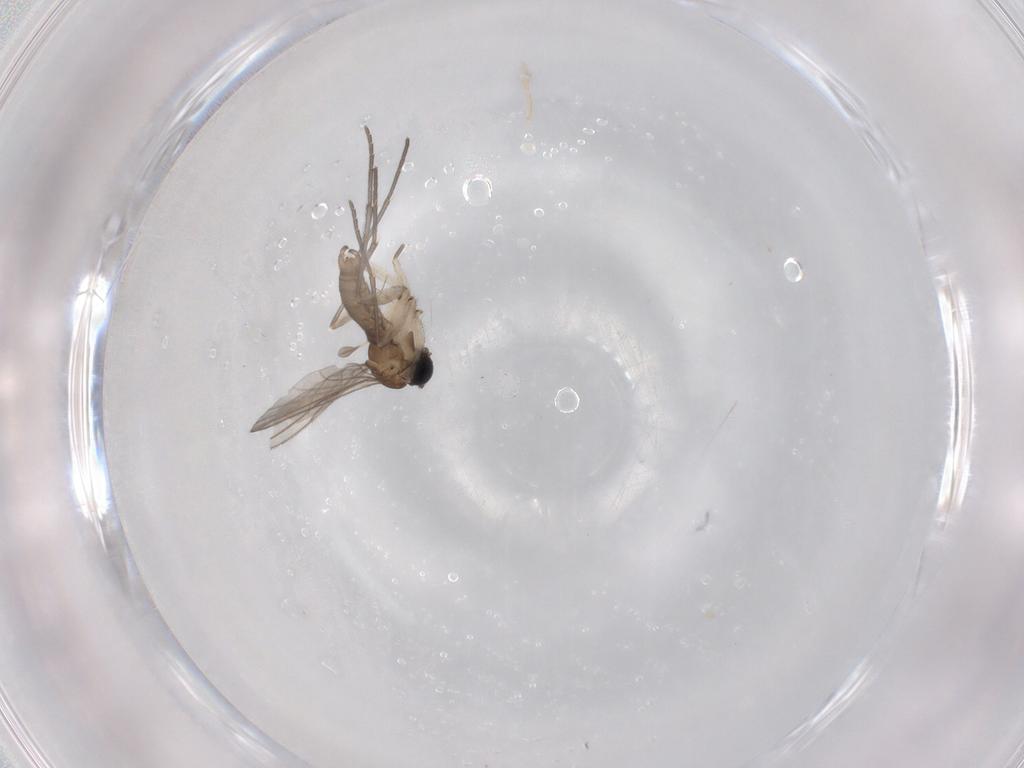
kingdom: Animalia
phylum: Arthropoda
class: Insecta
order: Diptera
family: Sciaridae
